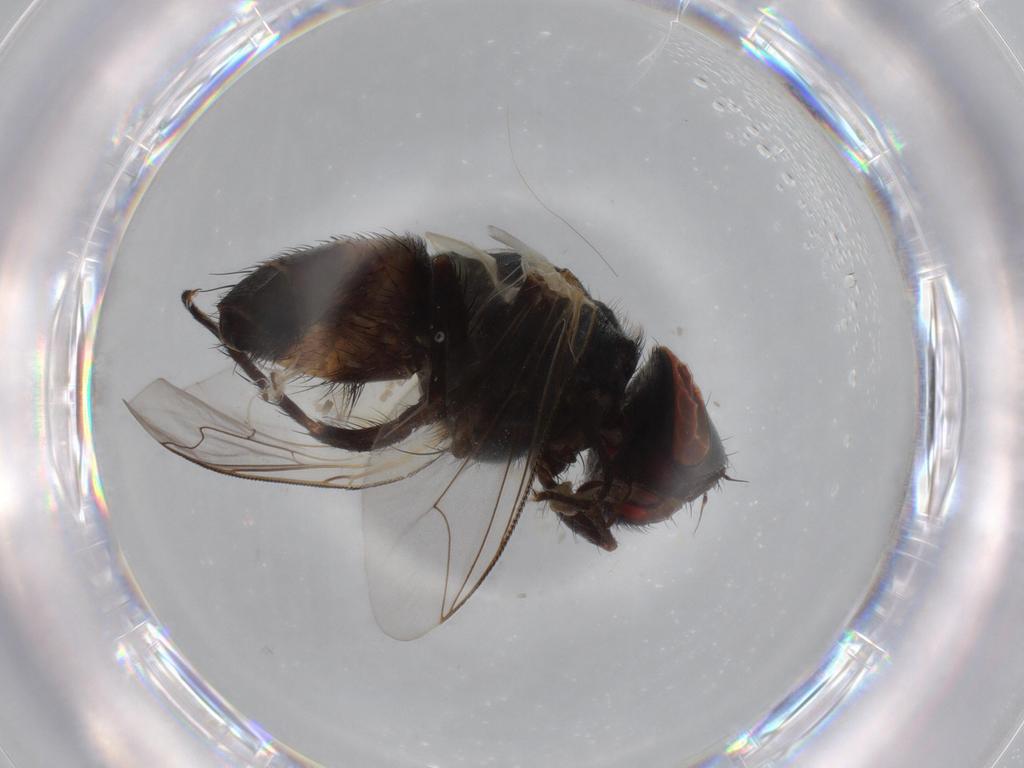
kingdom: Animalia
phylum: Arthropoda
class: Insecta
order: Diptera
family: Sarcophagidae
